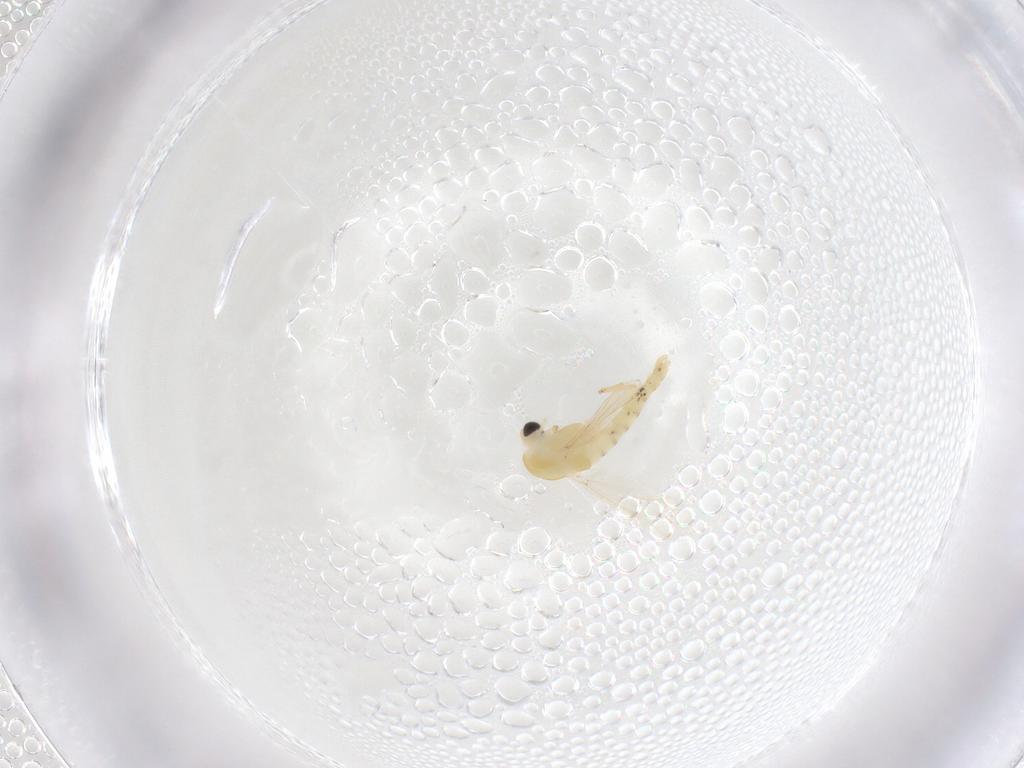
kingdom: Animalia
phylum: Arthropoda
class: Insecta
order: Diptera
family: Chironomidae
